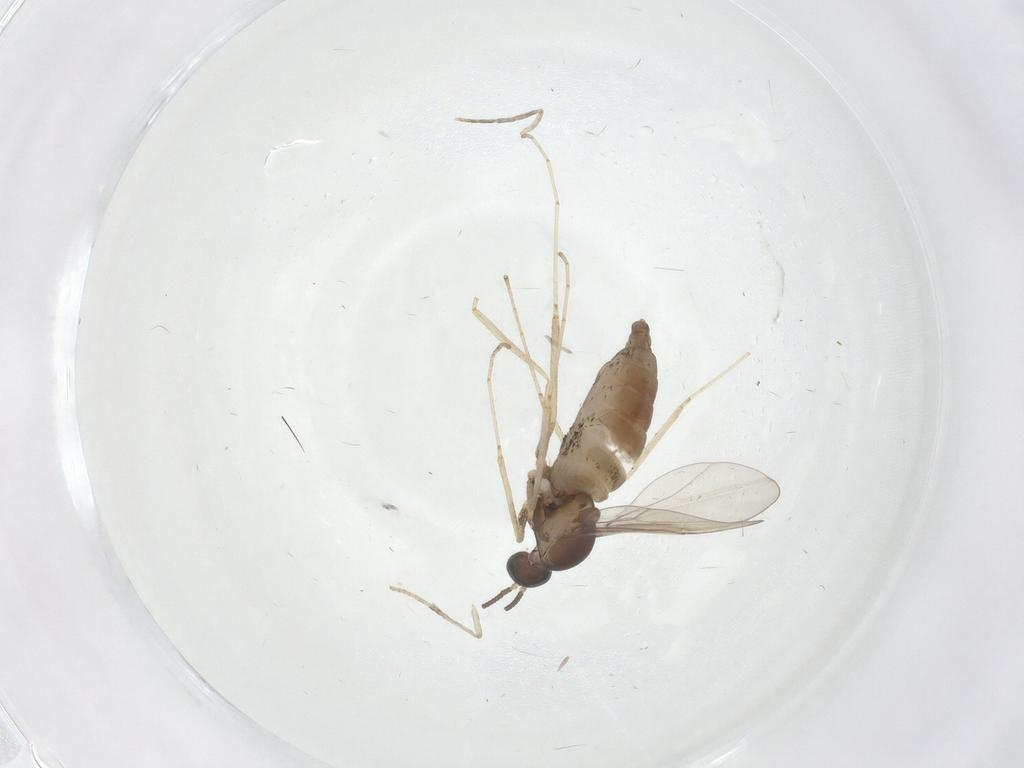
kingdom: Animalia
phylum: Arthropoda
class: Insecta
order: Diptera
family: Cecidomyiidae
